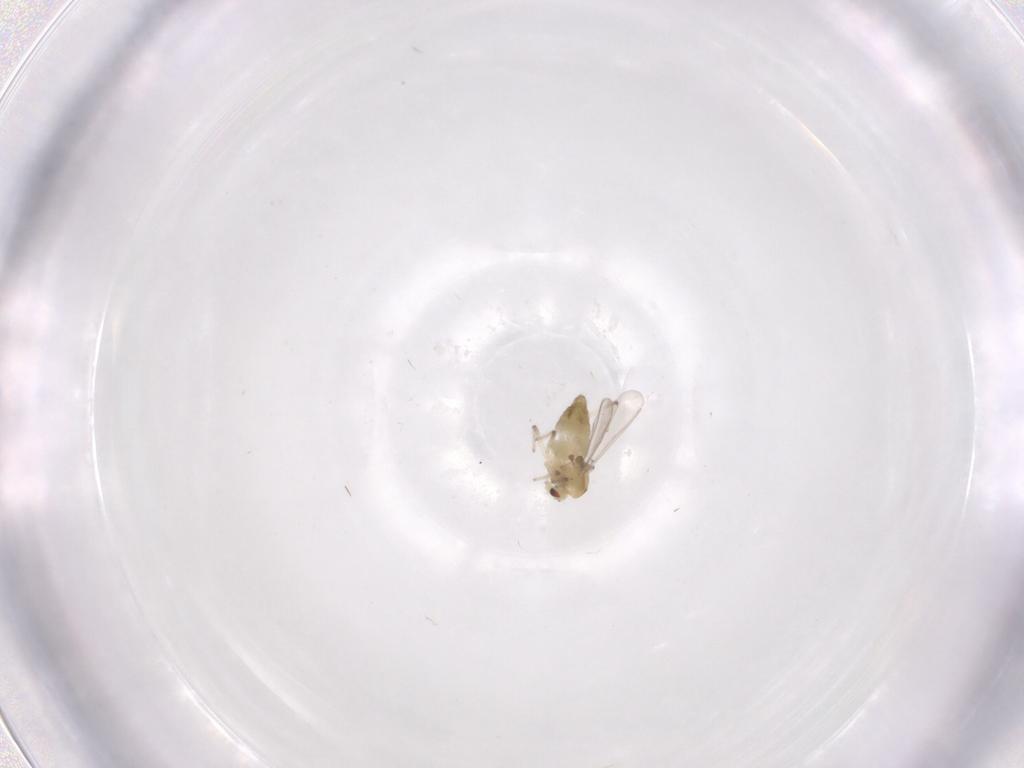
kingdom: Animalia
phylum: Arthropoda
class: Insecta
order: Diptera
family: Chironomidae
